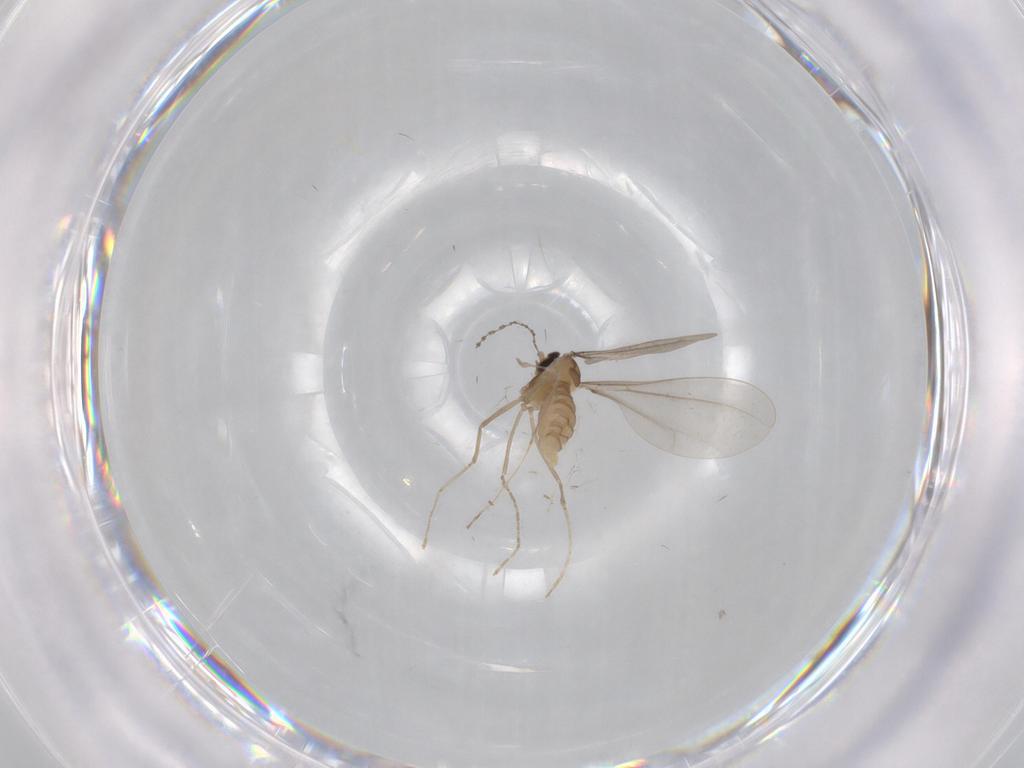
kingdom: Animalia
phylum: Arthropoda
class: Insecta
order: Diptera
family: Cecidomyiidae
